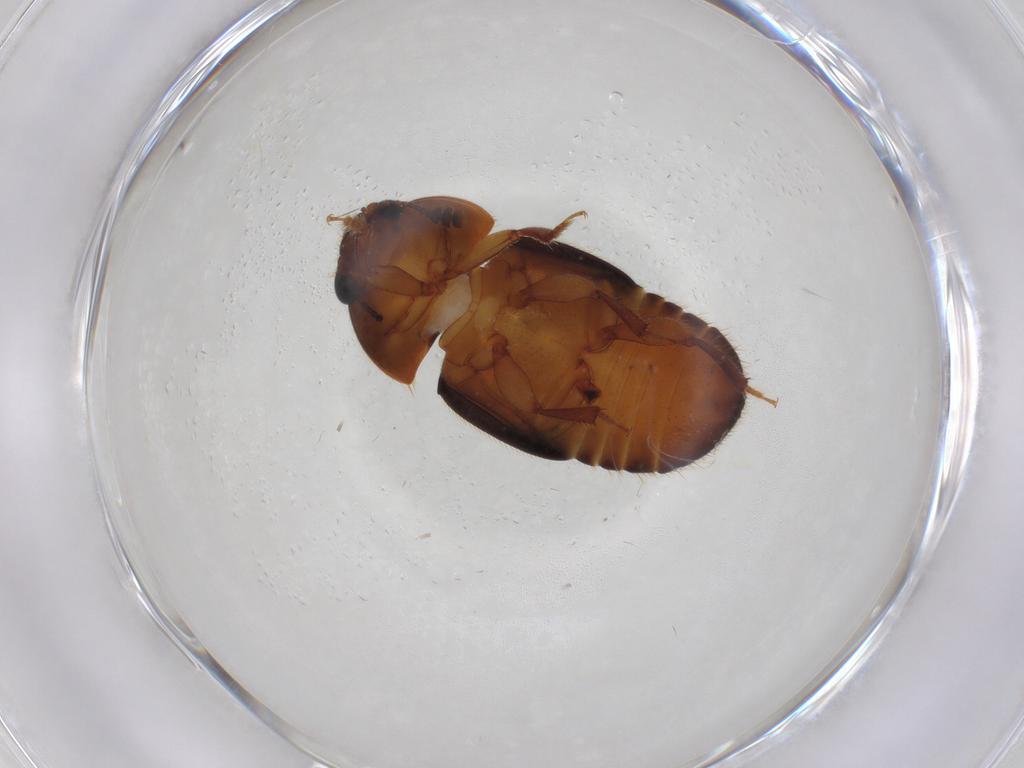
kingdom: Animalia
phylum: Arthropoda
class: Insecta
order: Coleoptera
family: Nitidulidae
